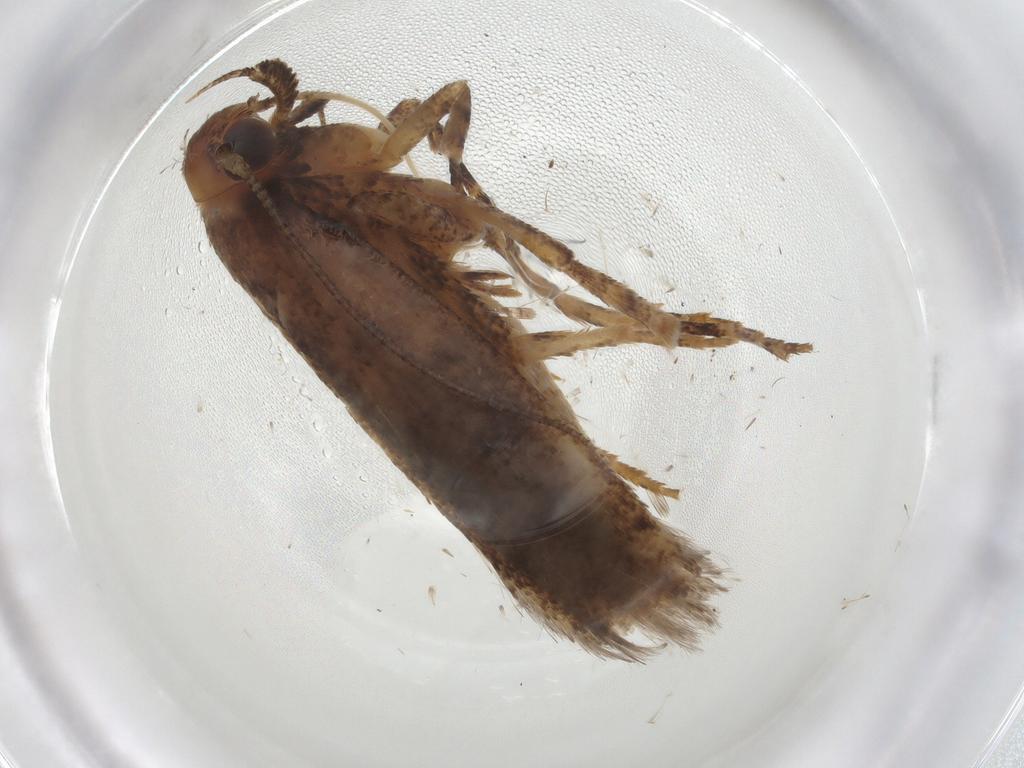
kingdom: Animalia
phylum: Arthropoda
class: Insecta
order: Lepidoptera
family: Gelechiidae
